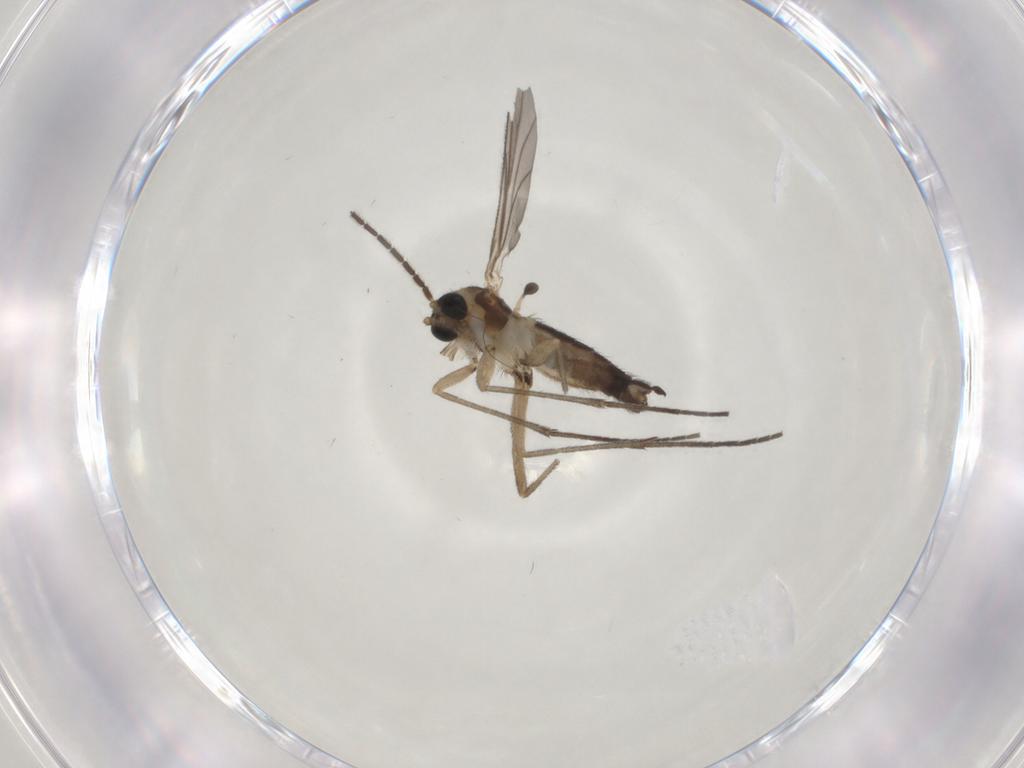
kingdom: Animalia
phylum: Arthropoda
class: Insecta
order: Diptera
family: Sciaridae
